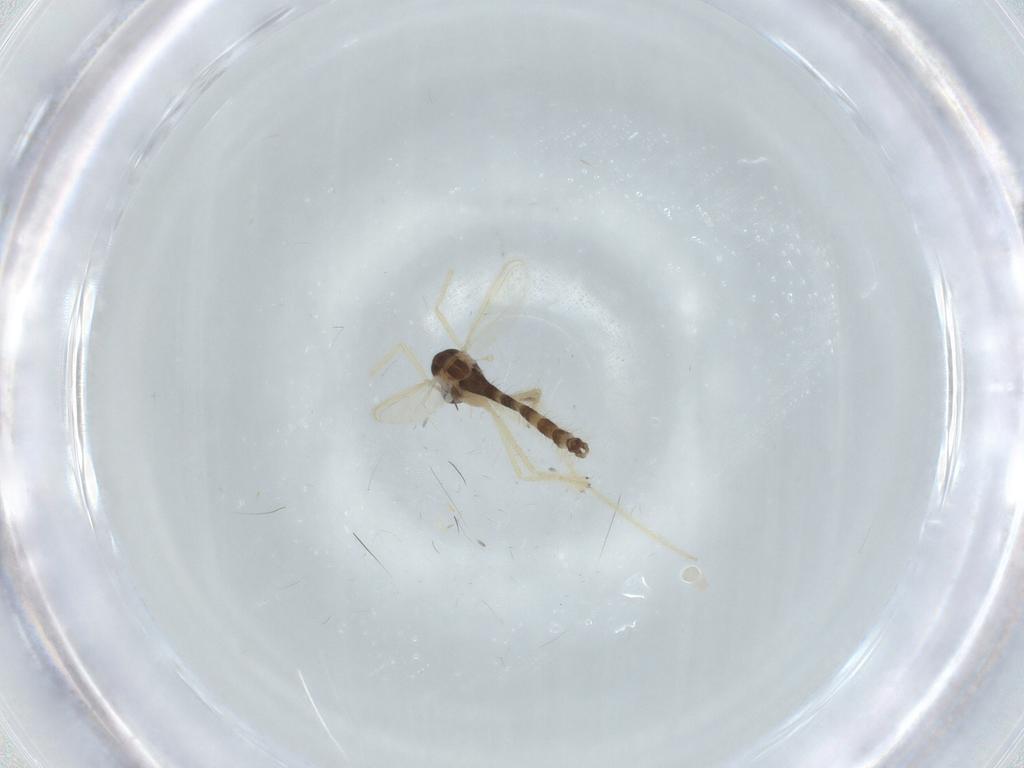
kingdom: Animalia
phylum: Arthropoda
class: Insecta
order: Diptera
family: Chironomidae
